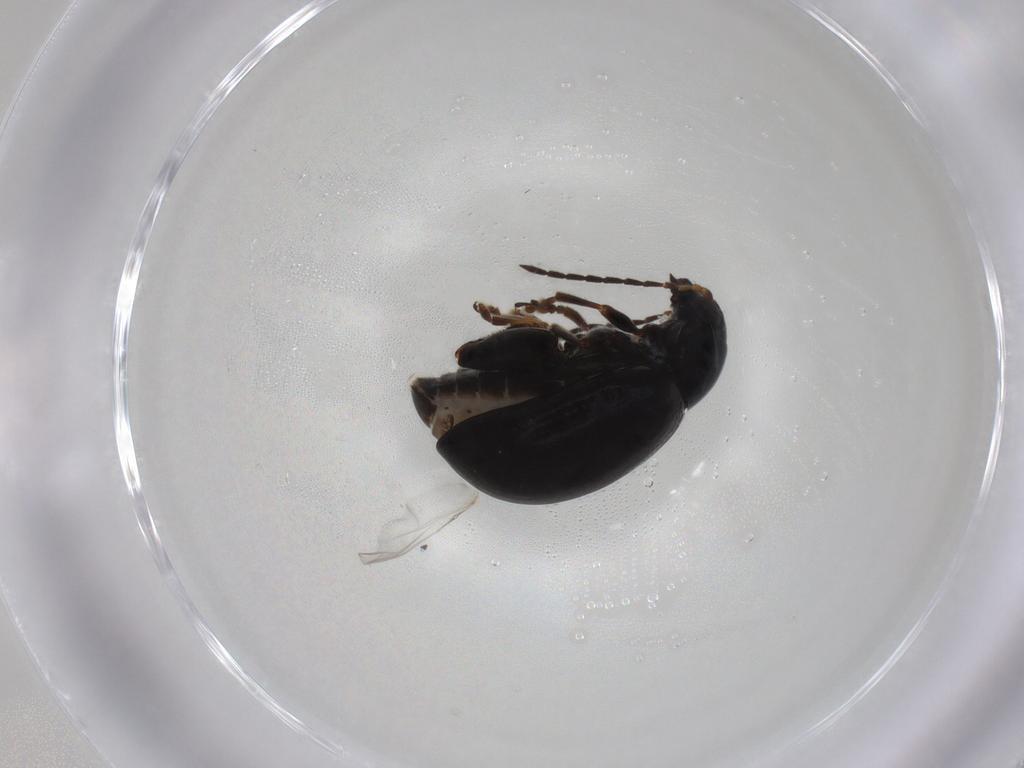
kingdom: Animalia
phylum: Arthropoda
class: Insecta
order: Coleoptera
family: Chrysomelidae
